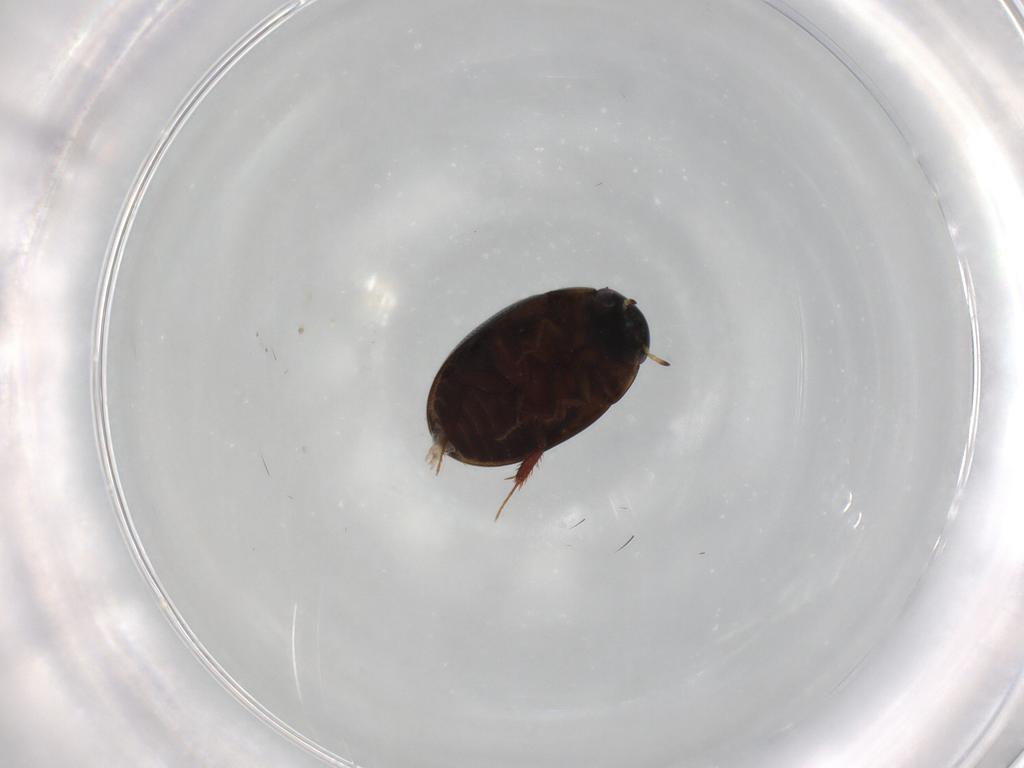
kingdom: Animalia
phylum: Arthropoda
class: Insecta
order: Coleoptera
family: Hydrophilidae
